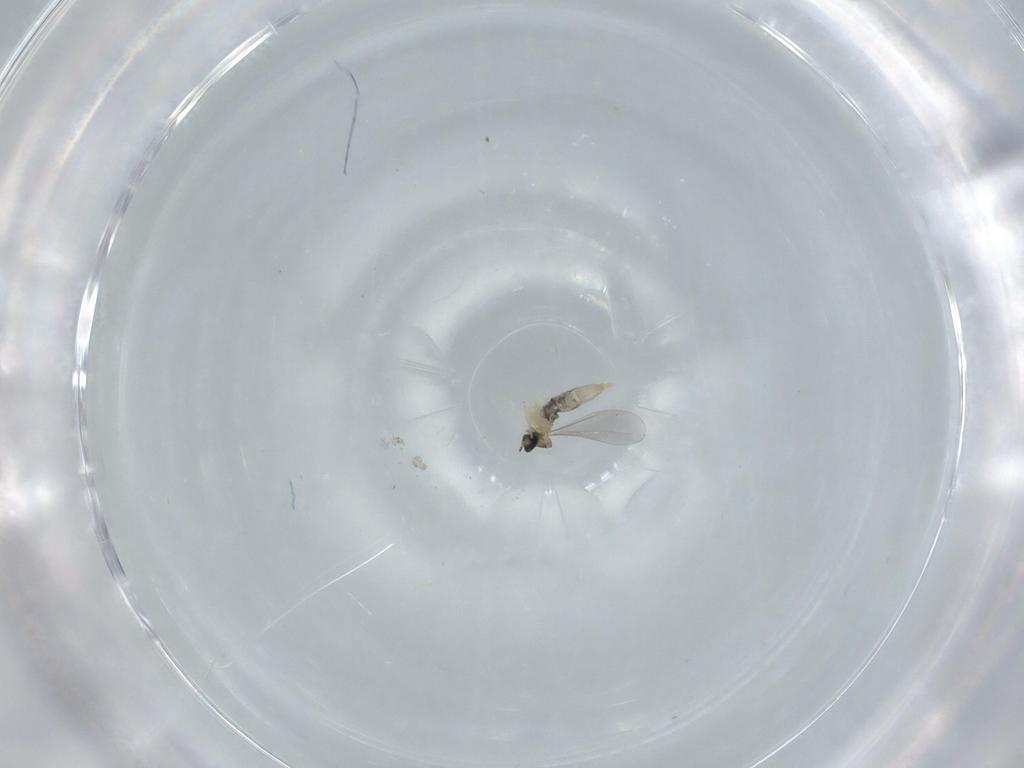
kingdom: Animalia
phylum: Arthropoda
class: Insecta
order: Diptera
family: Cecidomyiidae
